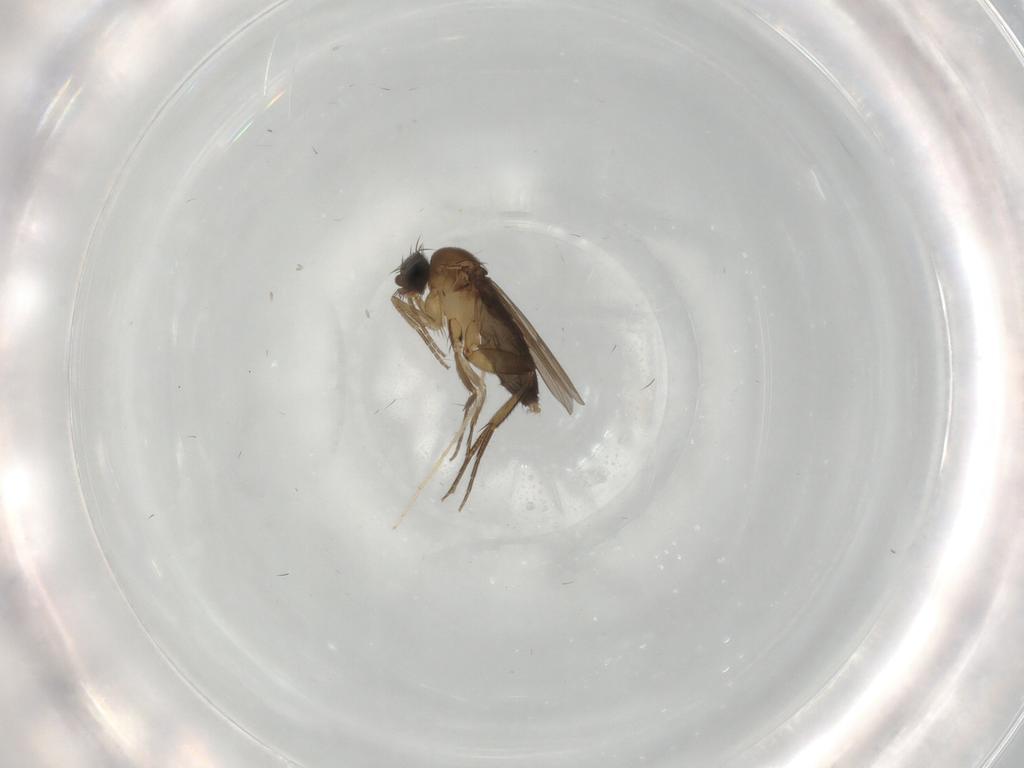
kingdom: Animalia
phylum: Arthropoda
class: Insecta
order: Diptera
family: Phoridae
